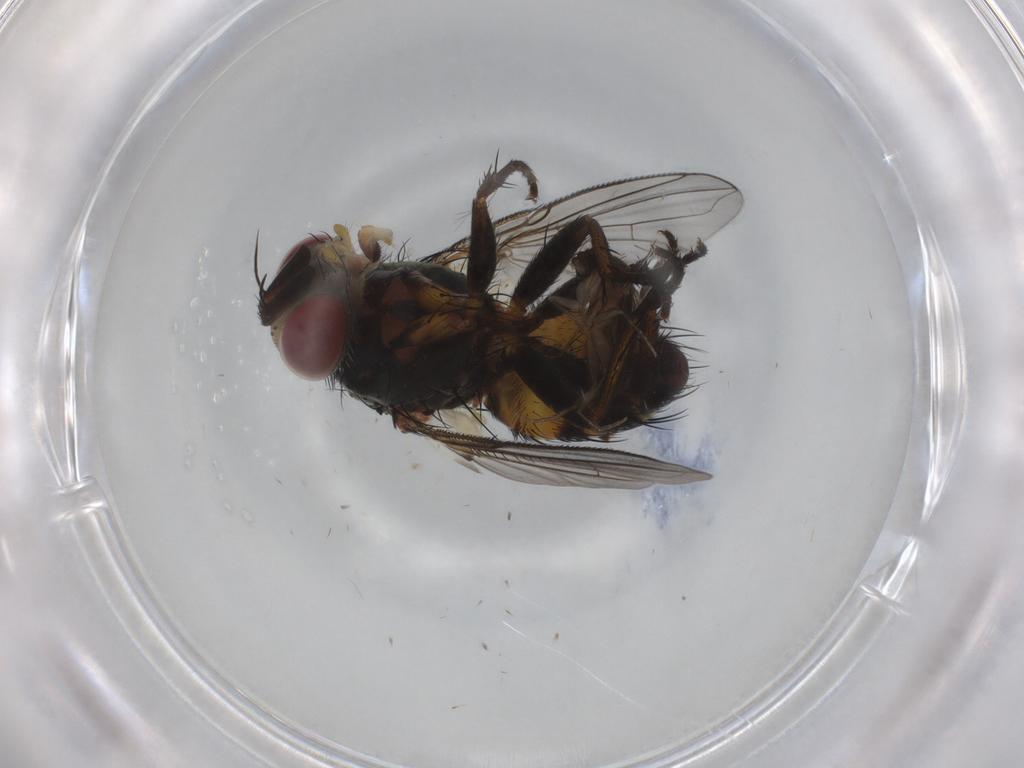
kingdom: Animalia
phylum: Arthropoda
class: Insecta
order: Diptera
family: Tachinidae
